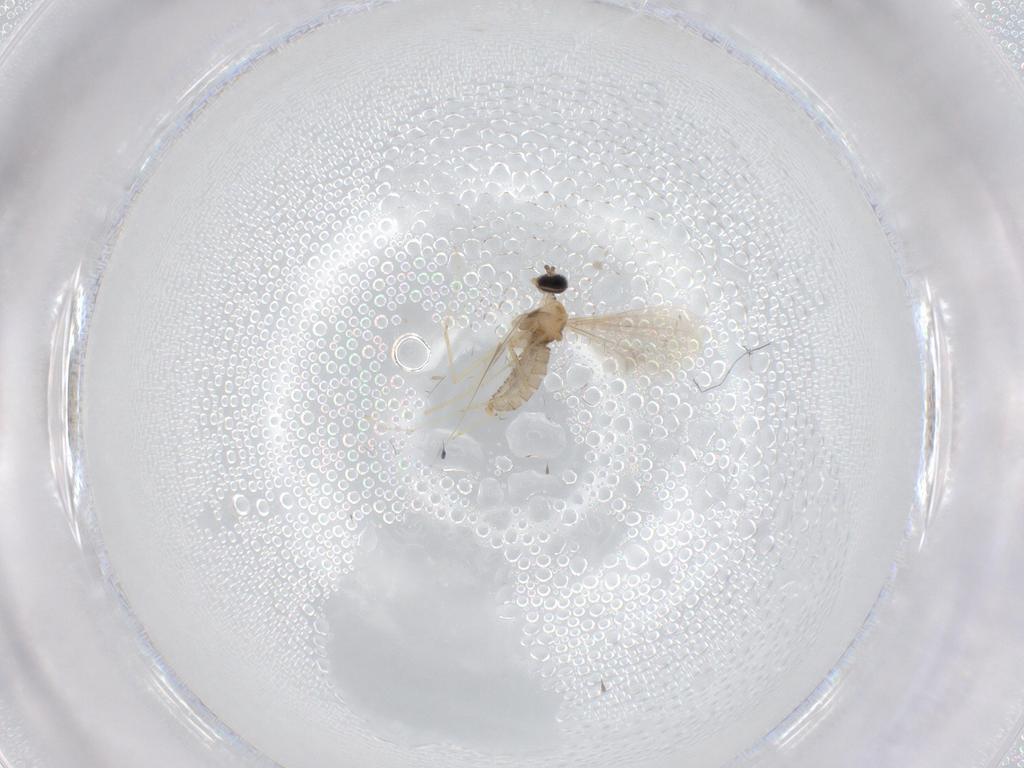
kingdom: Animalia
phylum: Arthropoda
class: Insecta
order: Diptera
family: Cecidomyiidae
